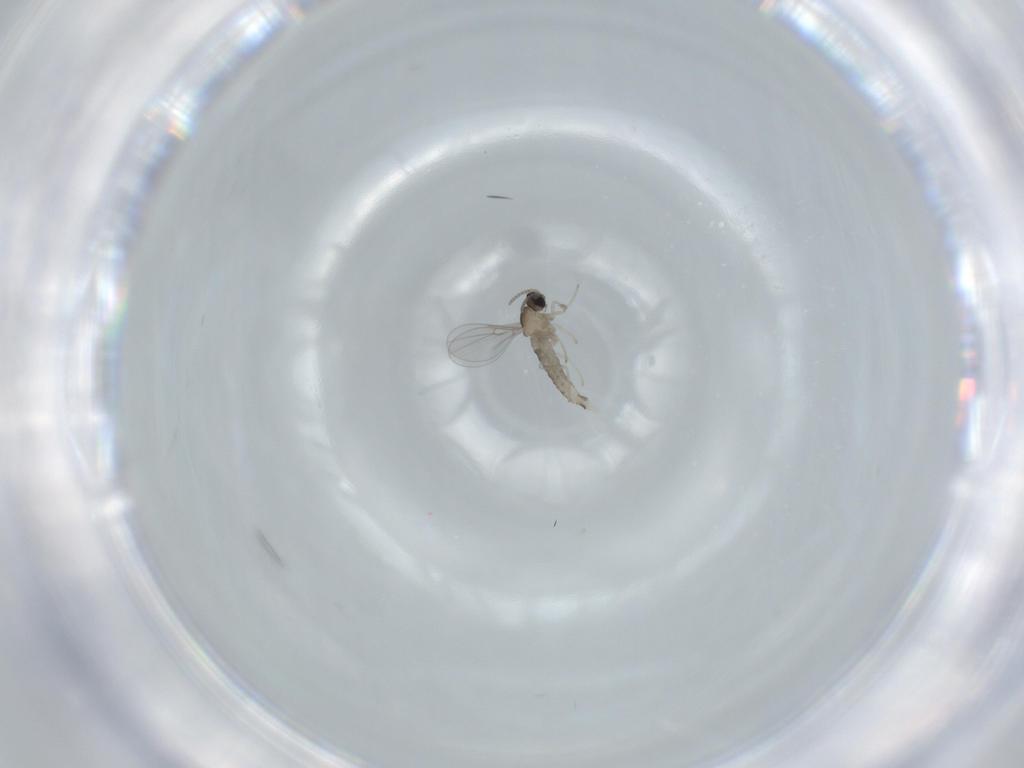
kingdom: Animalia
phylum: Arthropoda
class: Insecta
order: Diptera
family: Cecidomyiidae
